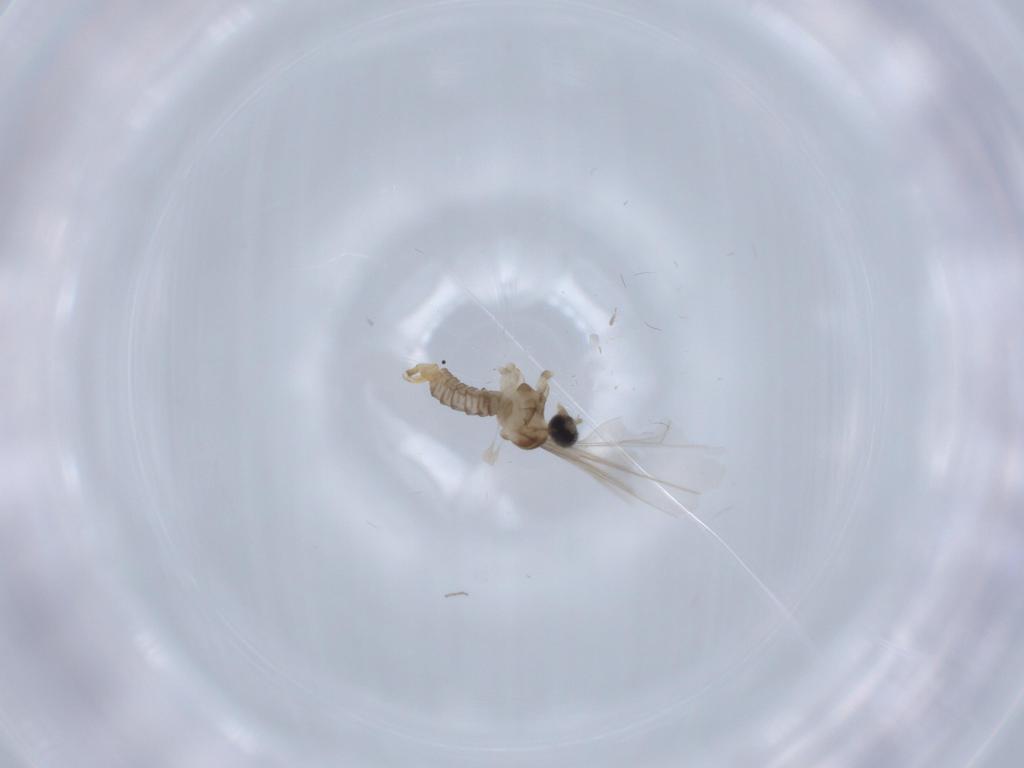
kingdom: Animalia
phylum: Arthropoda
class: Insecta
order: Diptera
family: Cecidomyiidae
